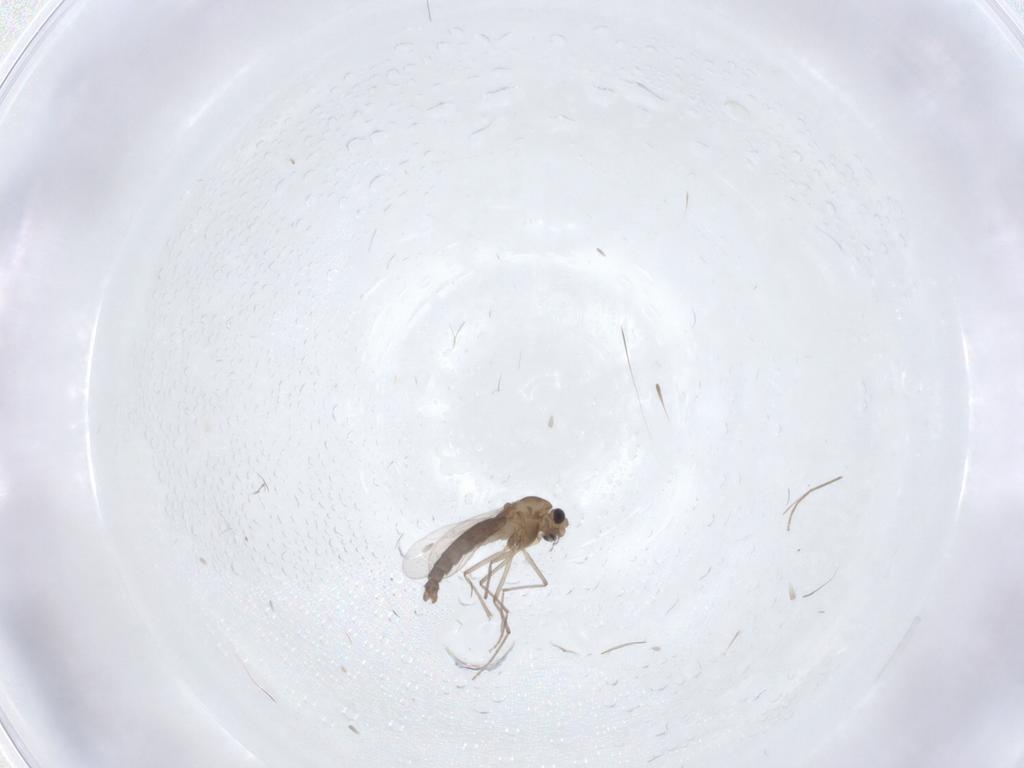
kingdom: Animalia
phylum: Arthropoda
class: Insecta
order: Diptera
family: Chironomidae
